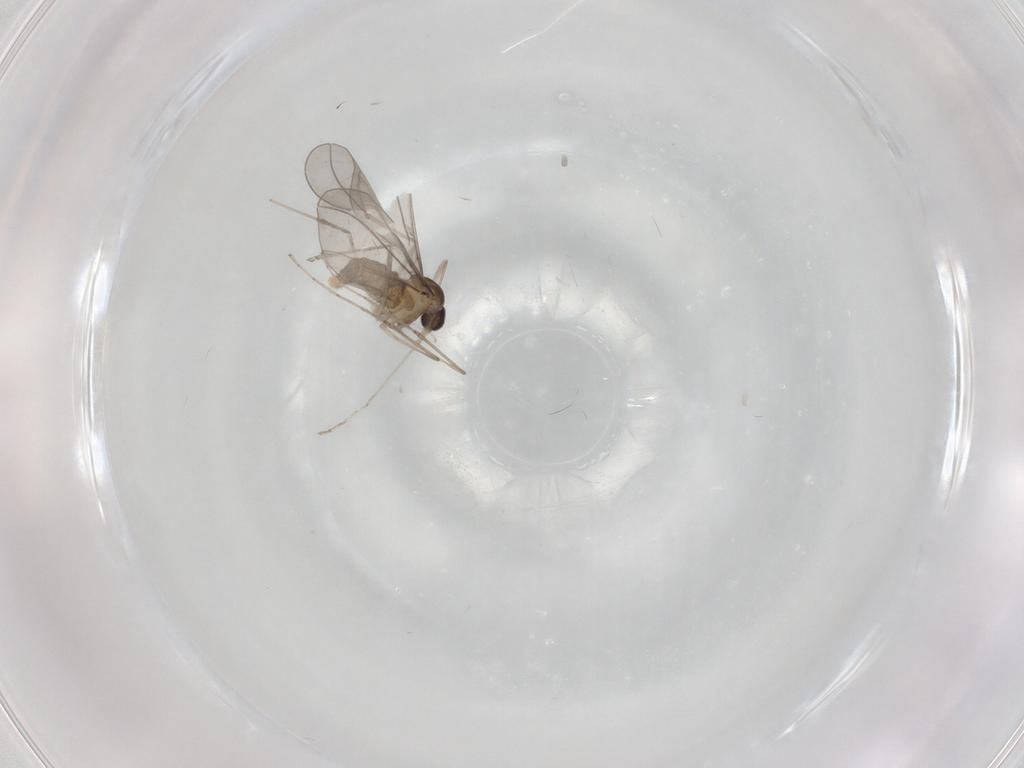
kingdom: Animalia
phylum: Arthropoda
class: Insecta
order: Diptera
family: Cecidomyiidae
